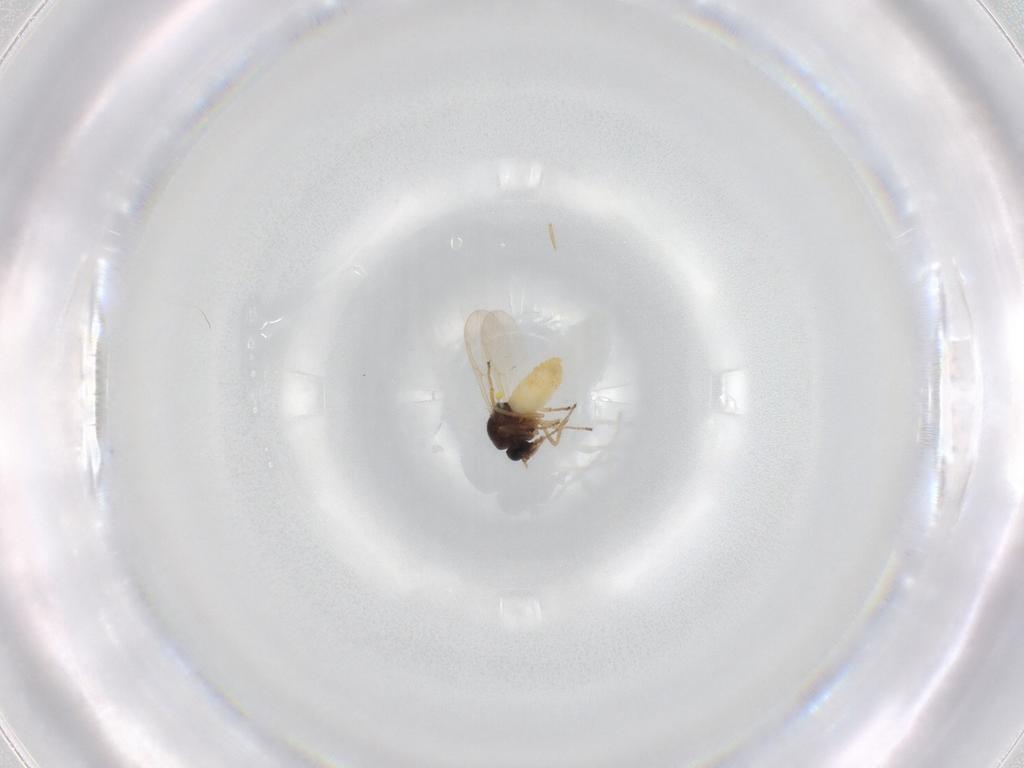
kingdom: Animalia
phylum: Arthropoda
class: Insecta
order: Diptera
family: Ceratopogonidae
